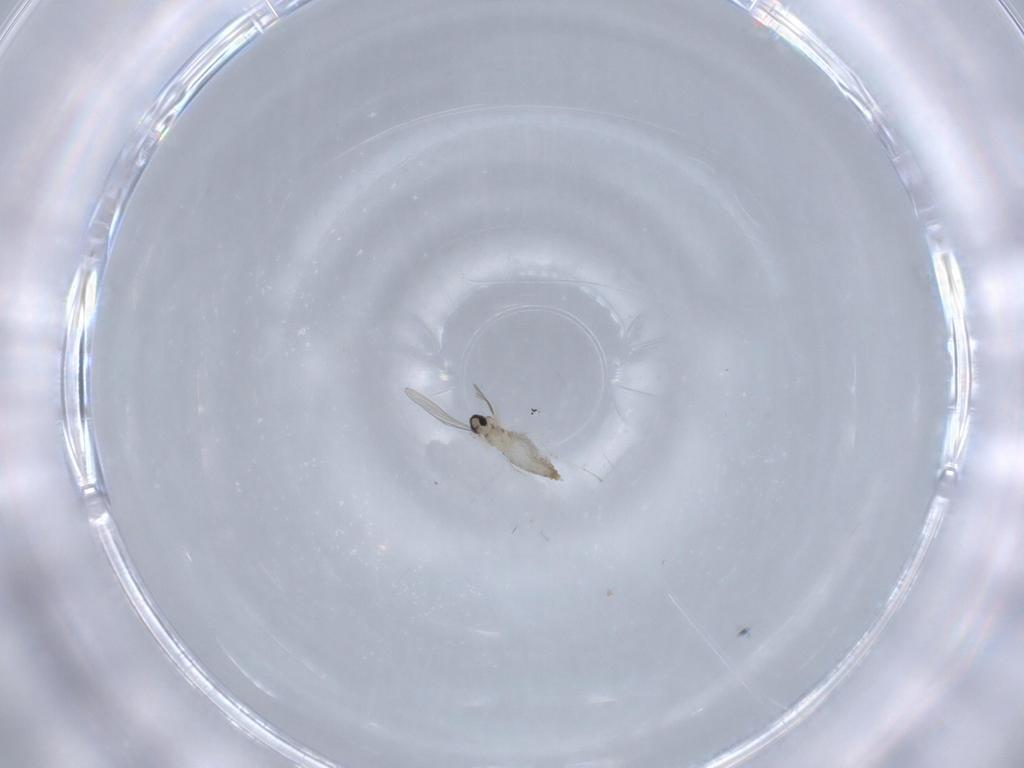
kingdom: Animalia
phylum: Arthropoda
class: Insecta
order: Diptera
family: Cecidomyiidae
